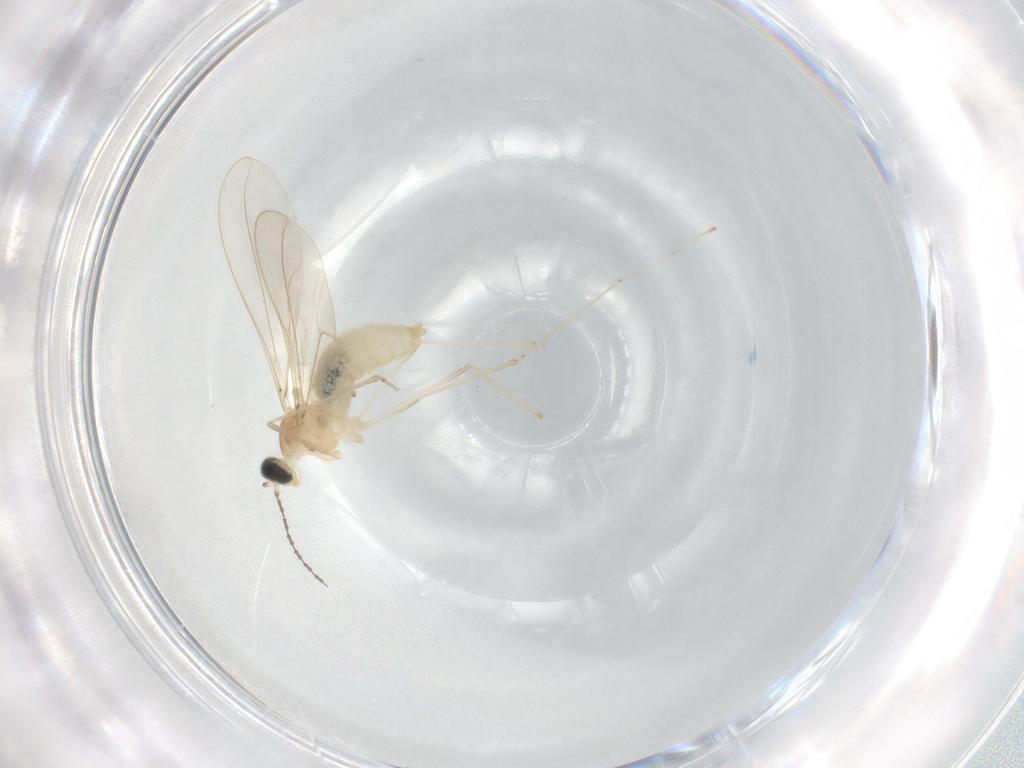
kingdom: Animalia
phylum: Arthropoda
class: Insecta
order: Diptera
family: Cecidomyiidae
